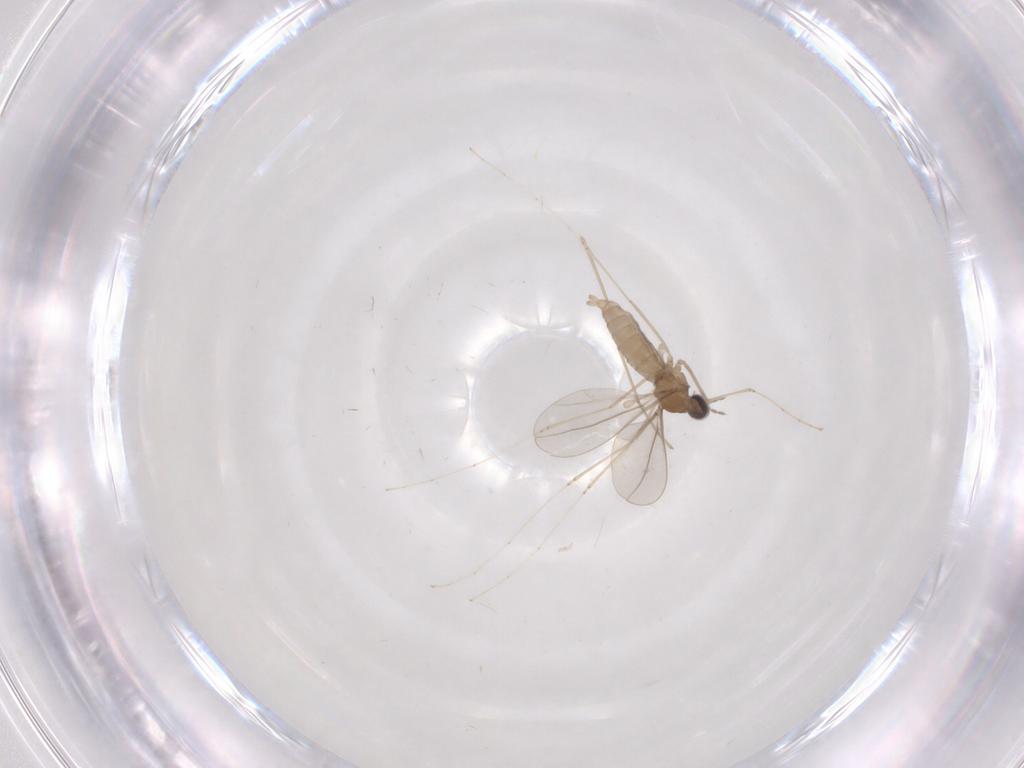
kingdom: Animalia
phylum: Arthropoda
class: Insecta
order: Diptera
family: Cecidomyiidae
